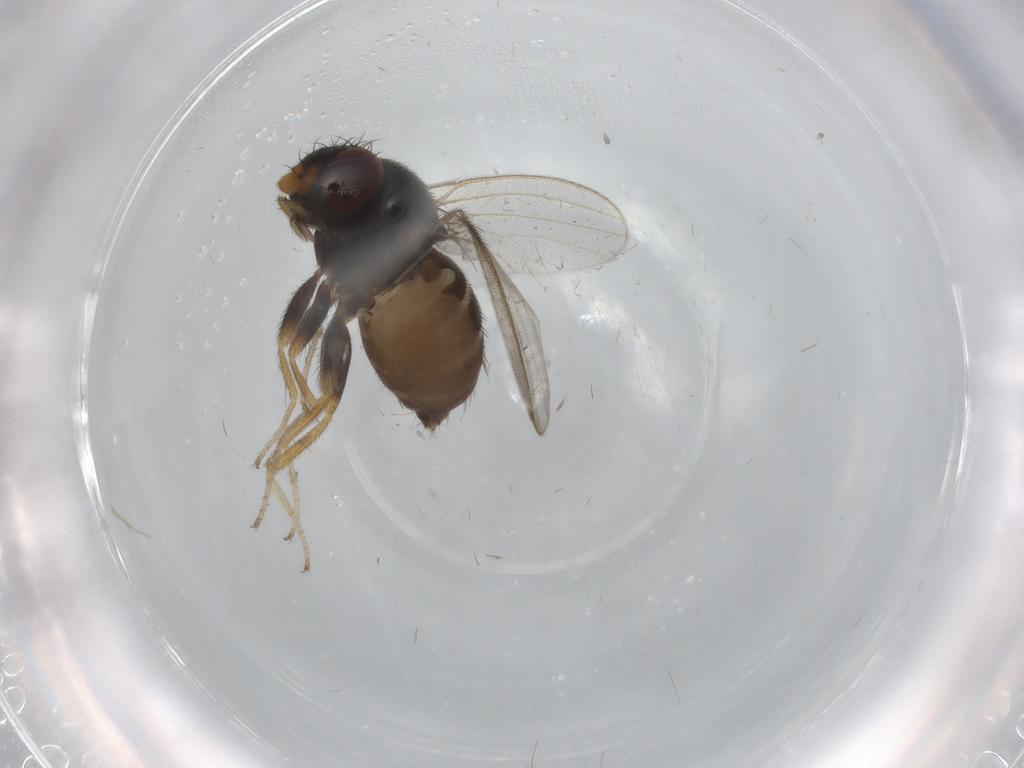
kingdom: Animalia
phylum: Arthropoda
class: Insecta
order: Diptera
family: Milichiidae
